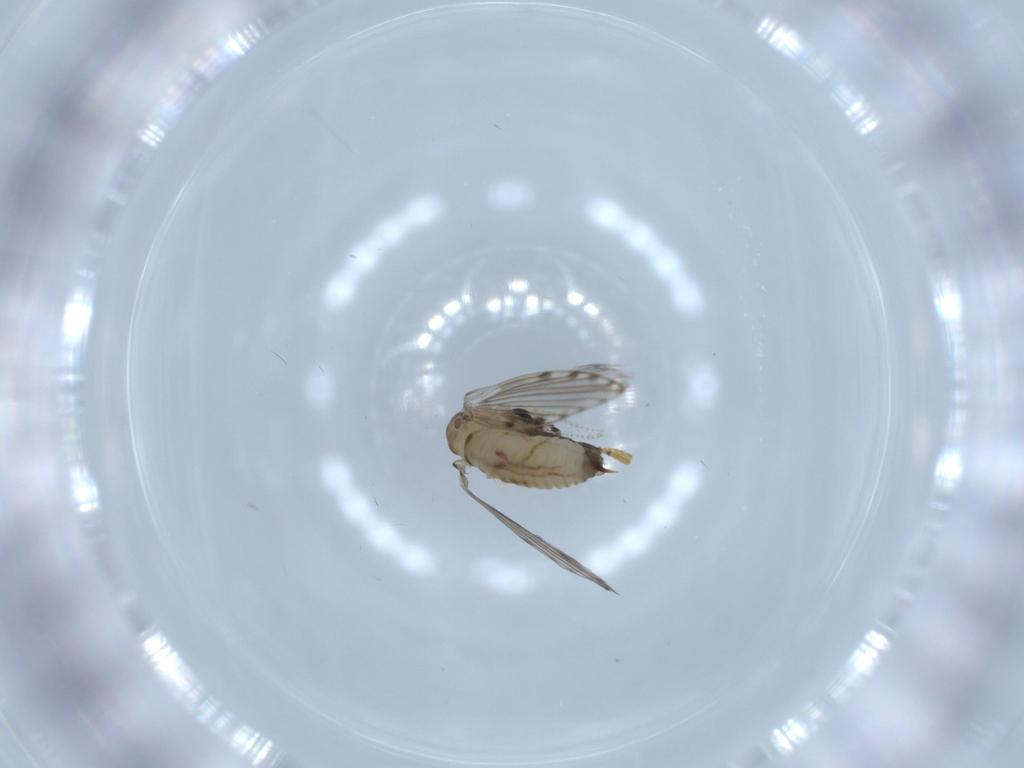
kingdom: Animalia
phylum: Arthropoda
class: Insecta
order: Diptera
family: Psychodidae
